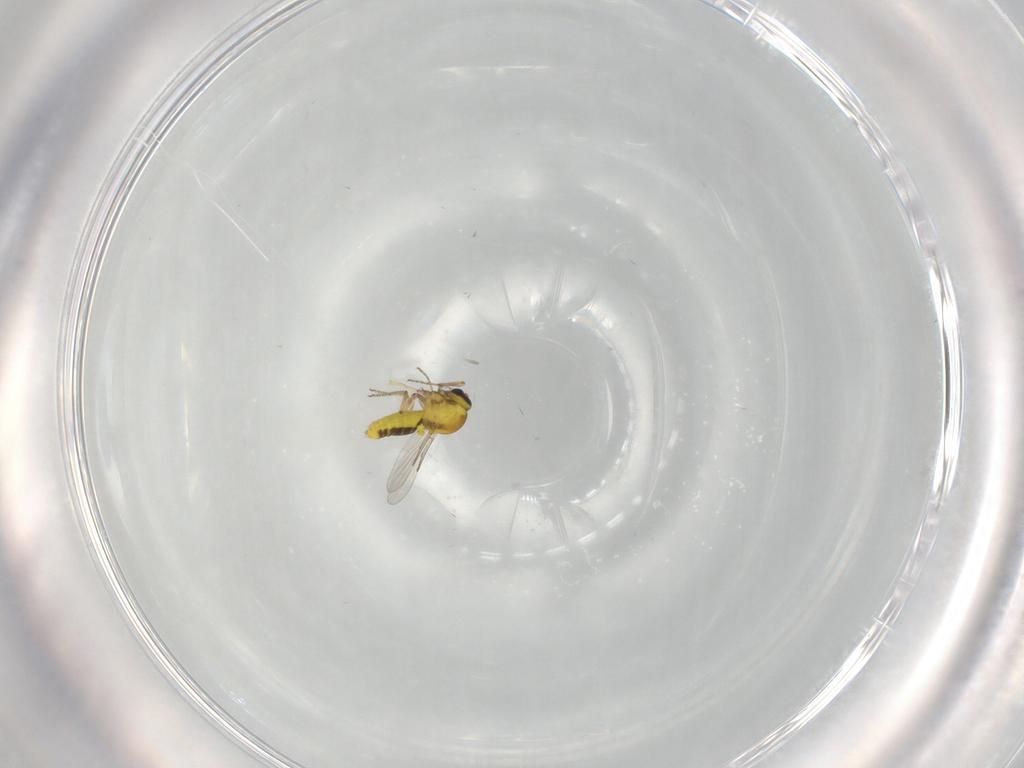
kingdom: Animalia
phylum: Arthropoda
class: Insecta
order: Diptera
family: Ceratopogonidae
